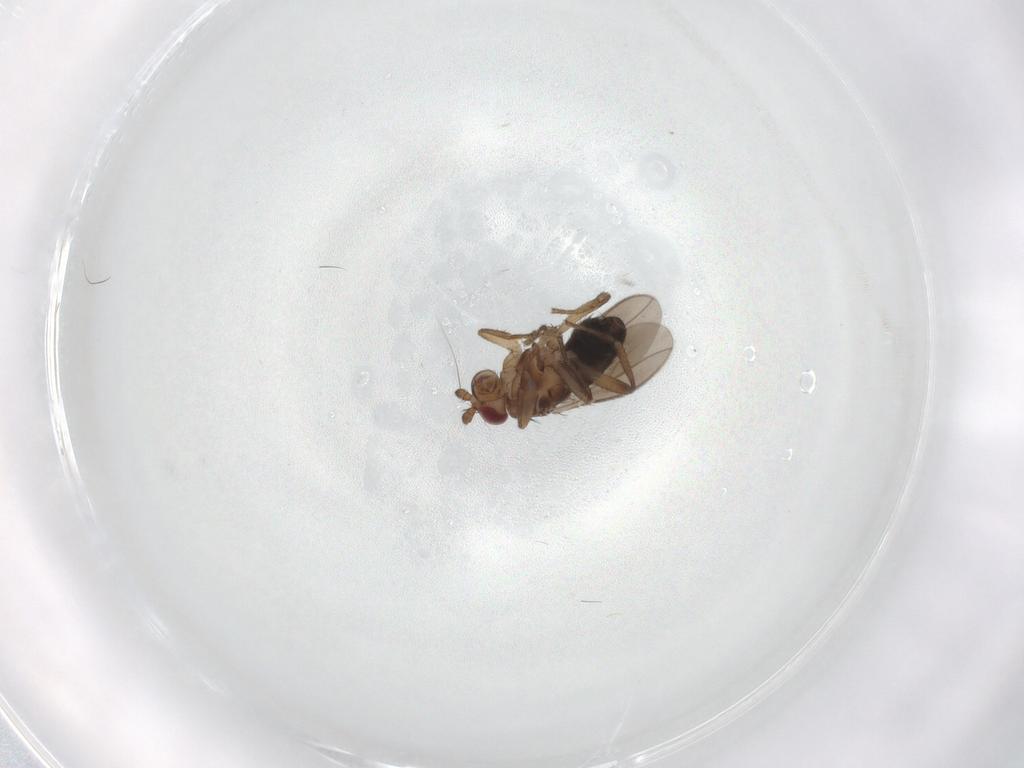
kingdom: Animalia
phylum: Arthropoda
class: Insecta
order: Diptera
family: Sphaeroceridae
